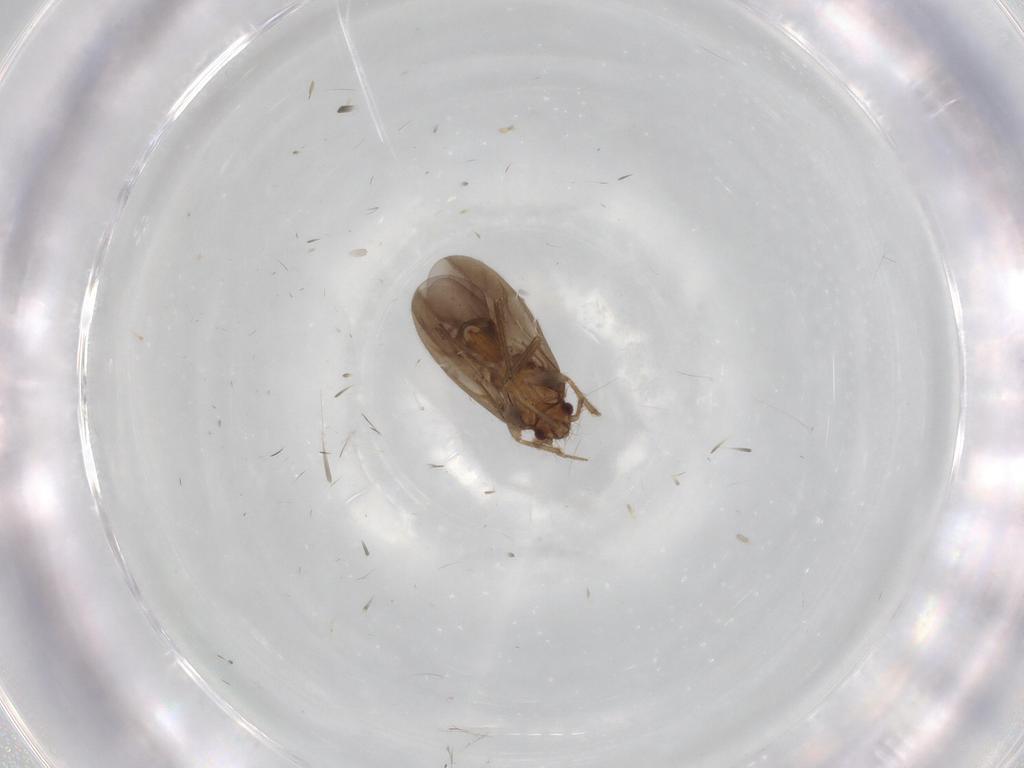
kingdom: Animalia
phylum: Arthropoda
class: Insecta
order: Hemiptera
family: Ceratocombidae
